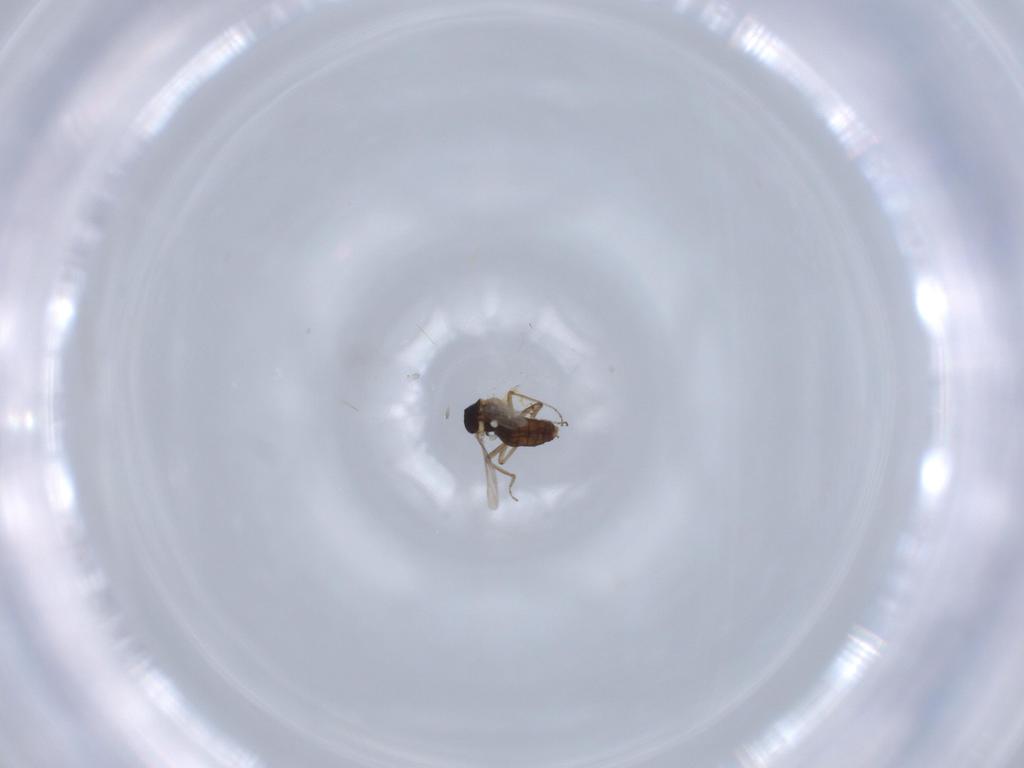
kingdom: Animalia
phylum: Arthropoda
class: Insecta
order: Diptera
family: Ceratopogonidae
